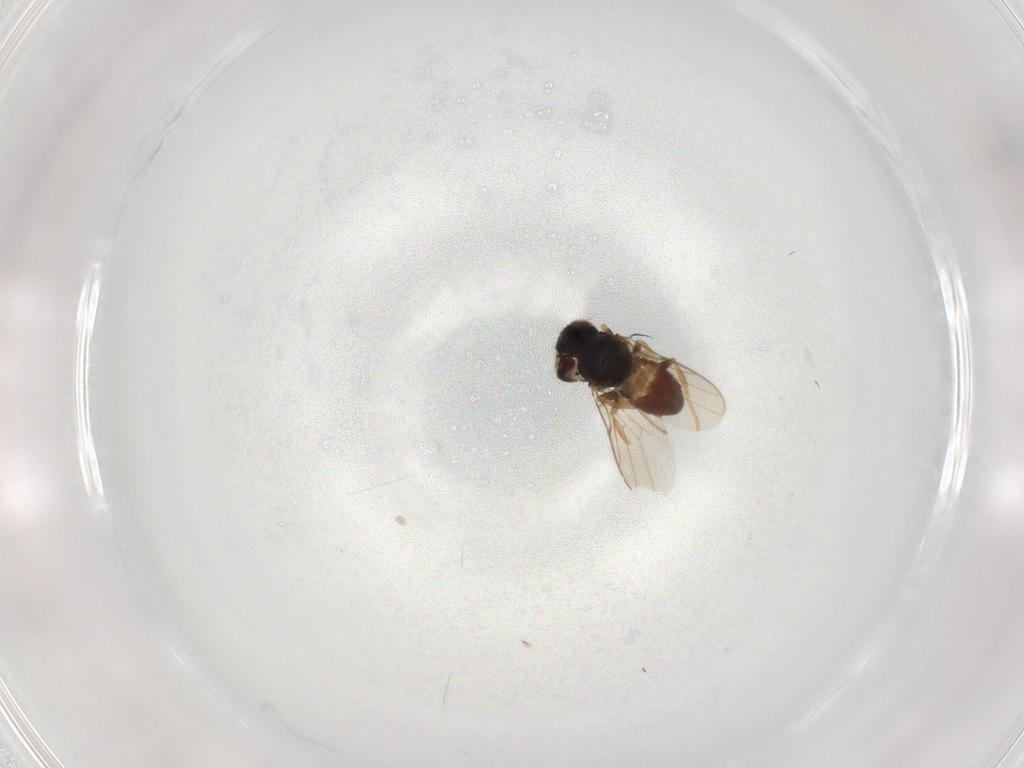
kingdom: Animalia
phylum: Arthropoda
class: Insecta
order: Diptera
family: Chloropidae
